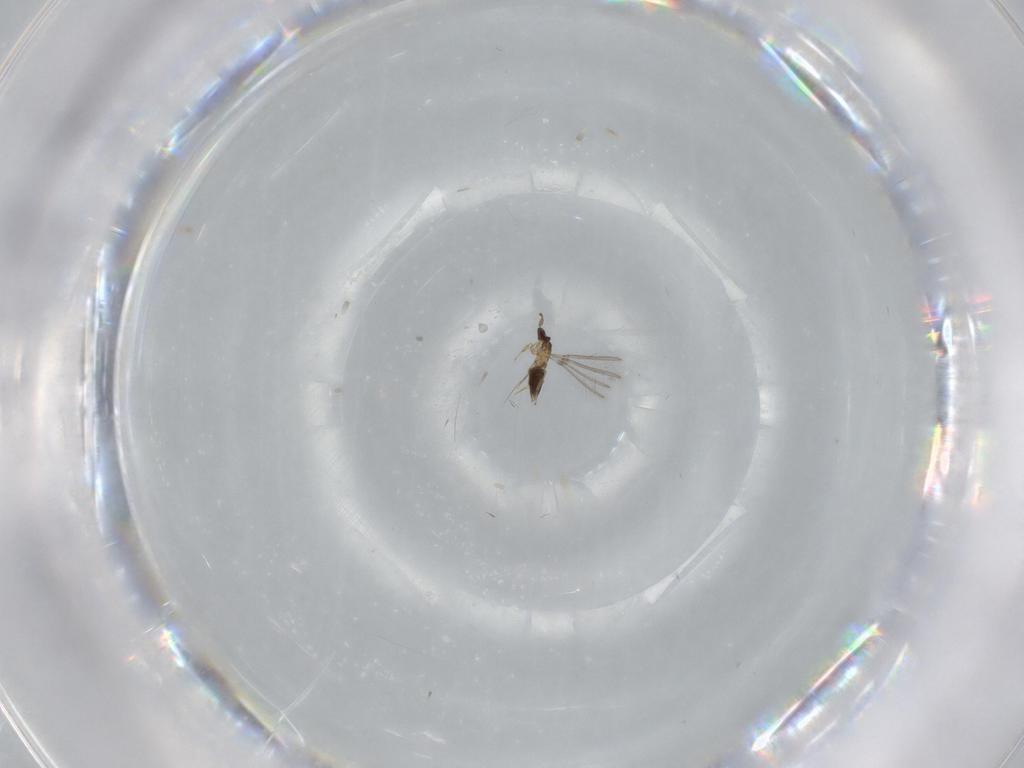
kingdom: Animalia
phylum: Arthropoda
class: Insecta
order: Hymenoptera
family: Mymaridae
